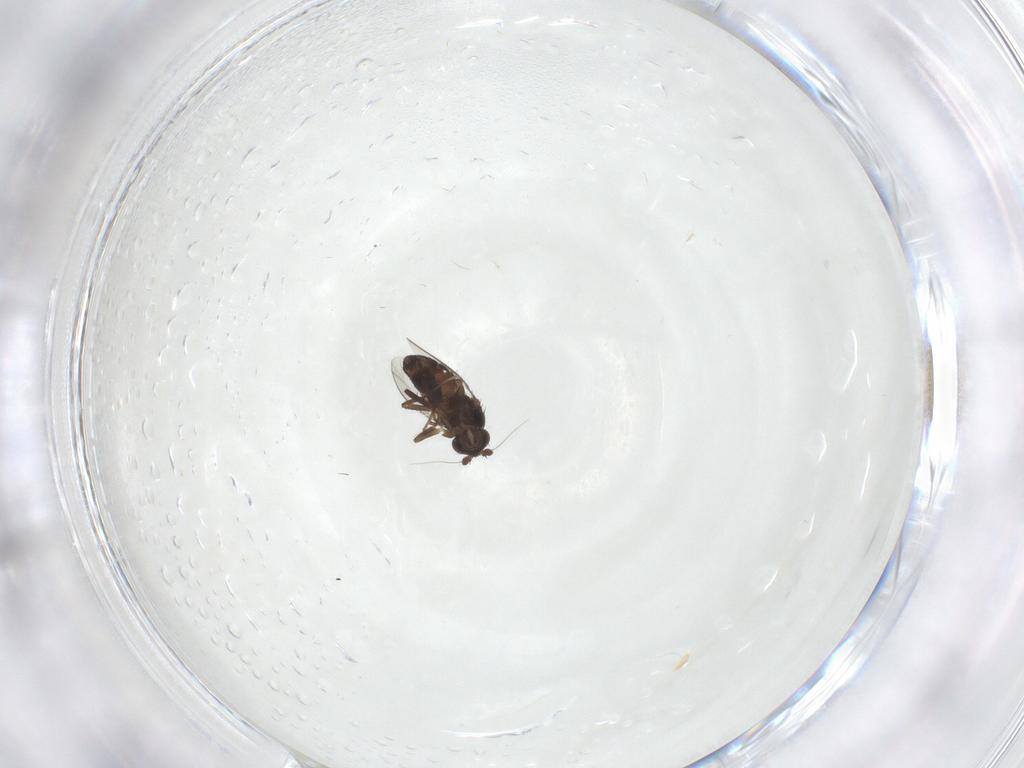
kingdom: Animalia
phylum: Arthropoda
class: Insecta
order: Diptera
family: Sphaeroceridae
